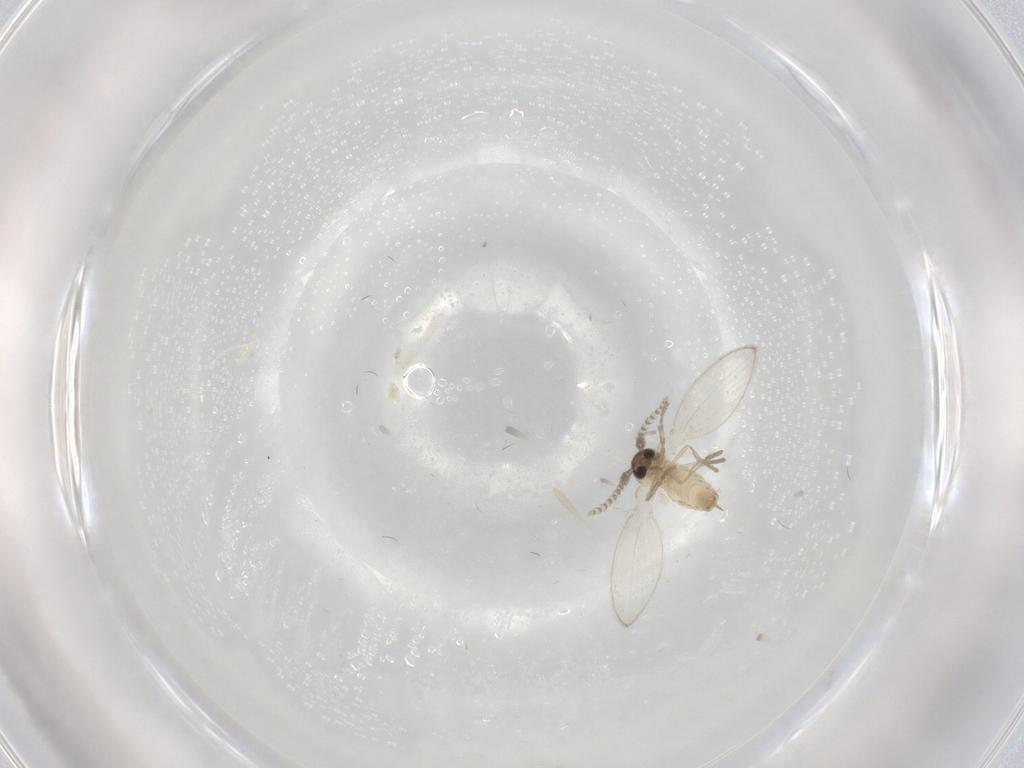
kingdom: Animalia
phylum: Arthropoda
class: Insecta
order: Diptera
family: Psychodidae
